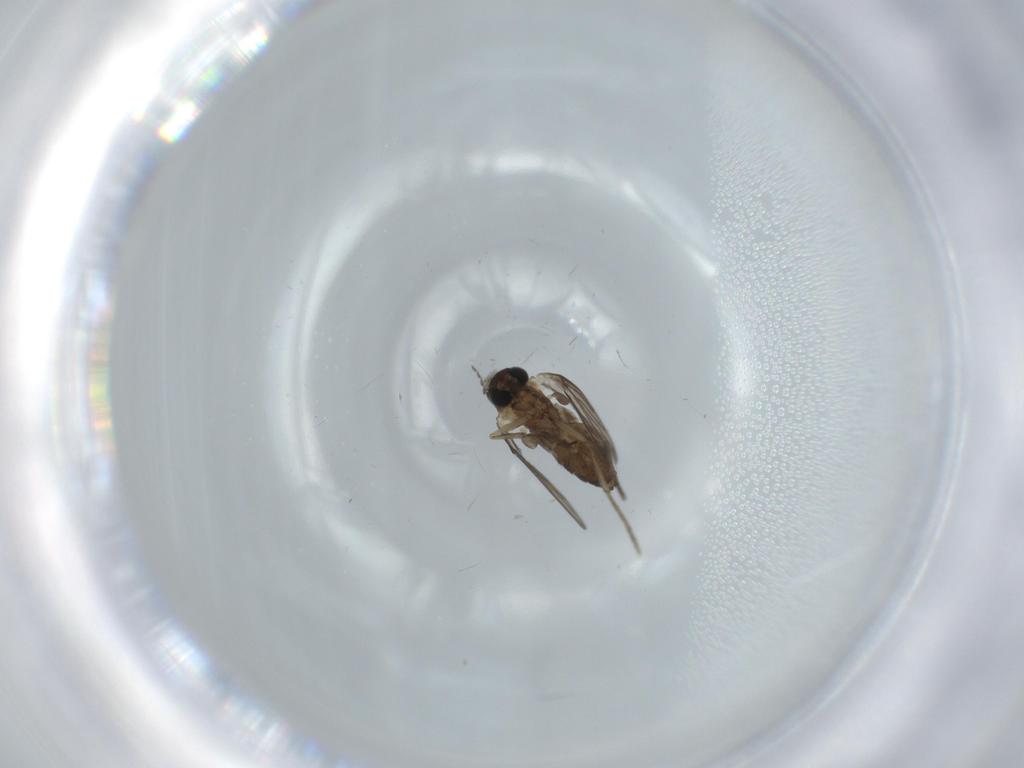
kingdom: Animalia
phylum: Arthropoda
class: Insecta
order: Diptera
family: Psychodidae
